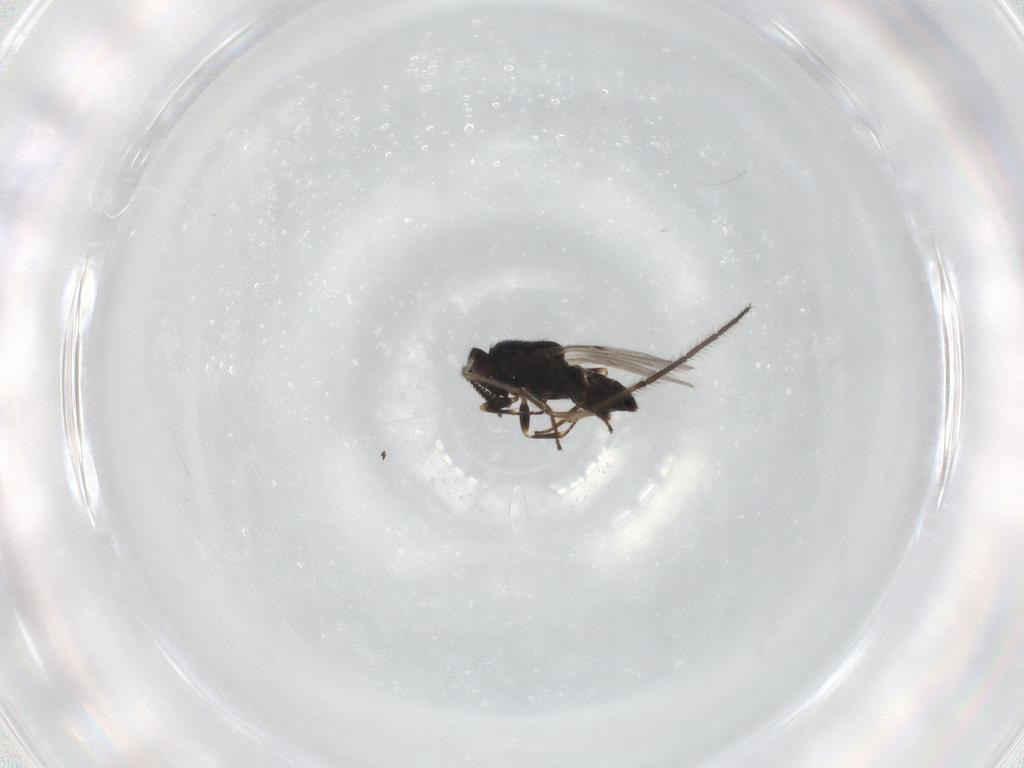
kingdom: Animalia
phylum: Arthropoda
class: Insecta
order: Hymenoptera
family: Encyrtidae
